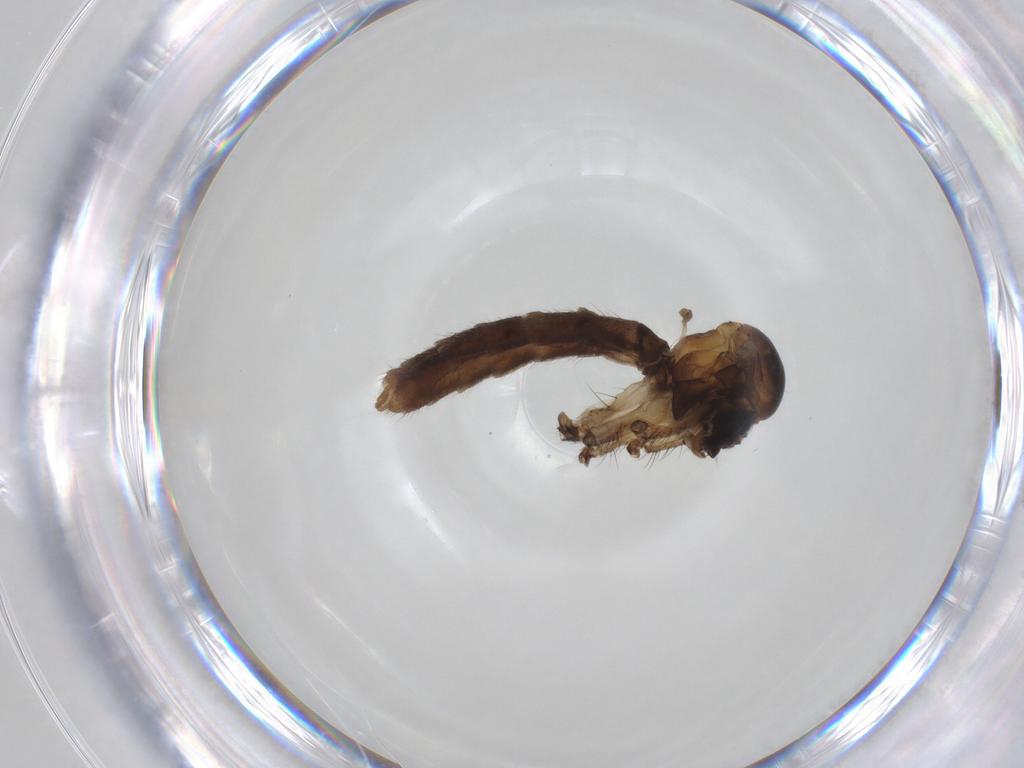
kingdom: Animalia
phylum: Arthropoda
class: Insecta
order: Diptera
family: Mycetophilidae
